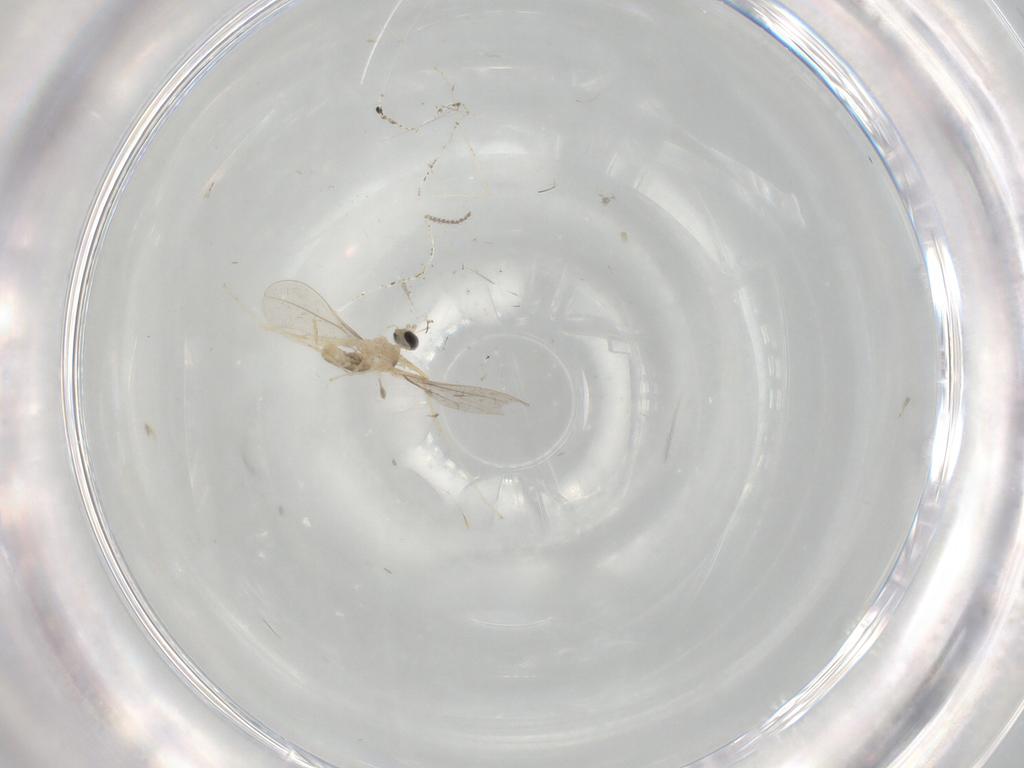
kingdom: Animalia
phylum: Arthropoda
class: Insecta
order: Diptera
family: Cecidomyiidae
